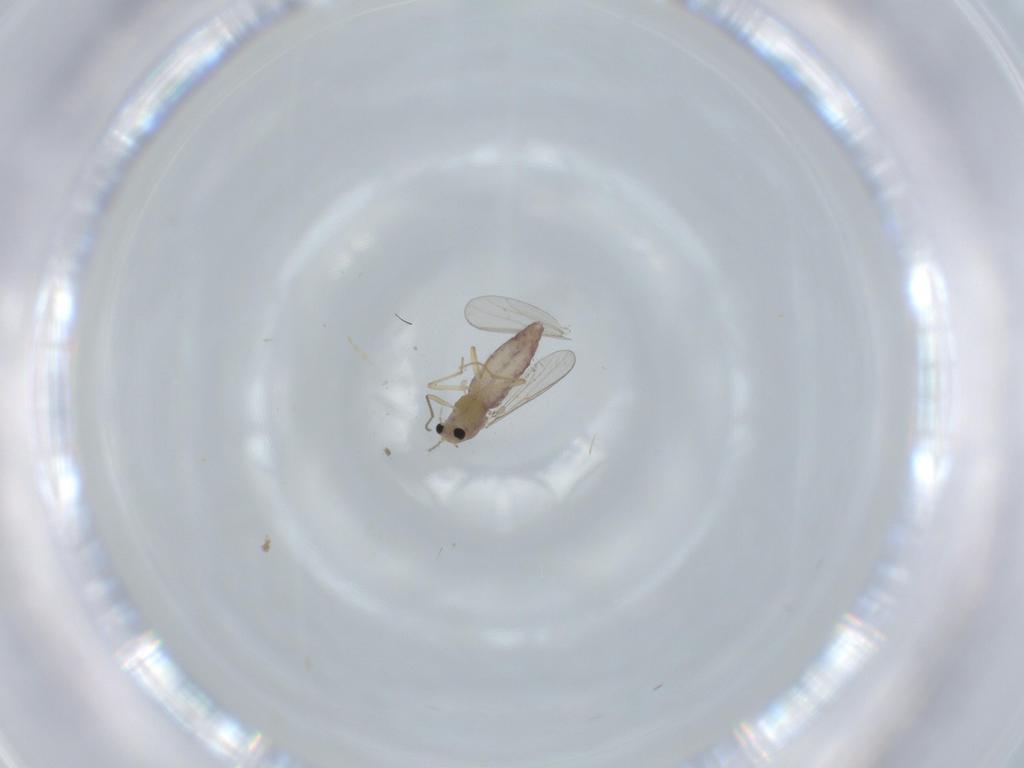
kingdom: Animalia
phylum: Arthropoda
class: Insecta
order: Diptera
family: Chironomidae
